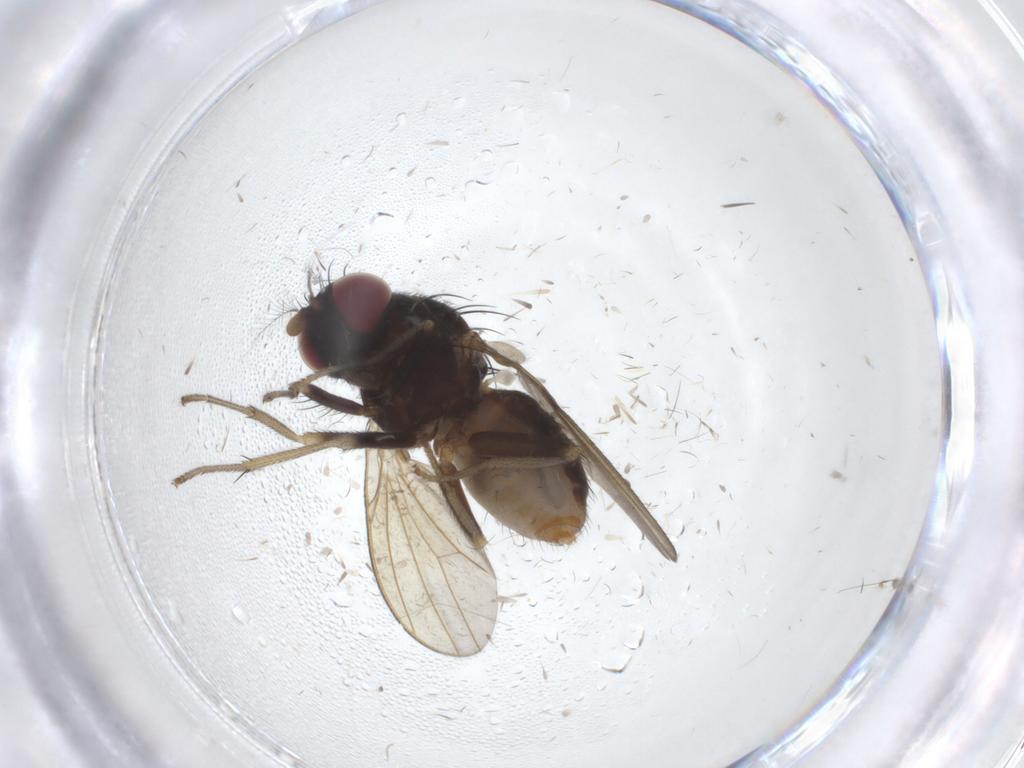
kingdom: Animalia
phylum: Arthropoda
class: Insecta
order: Diptera
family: Lauxaniidae
